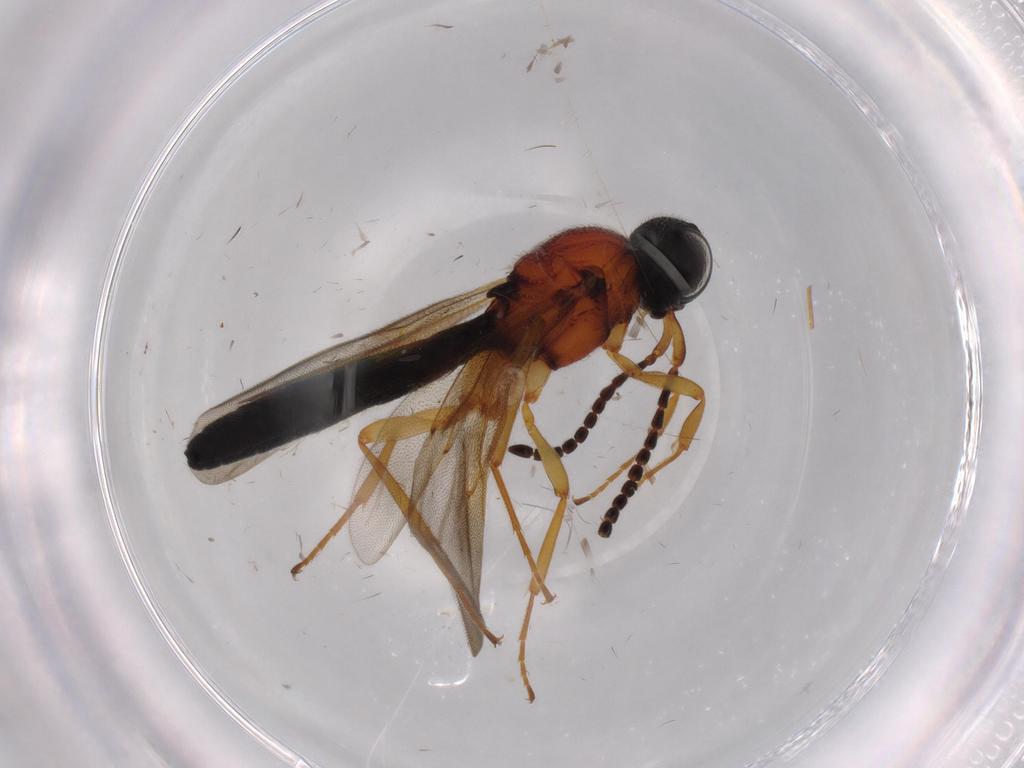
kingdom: Animalia
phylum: Arthropoda
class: Insecta
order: Hymenoptera
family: Scelionidae
